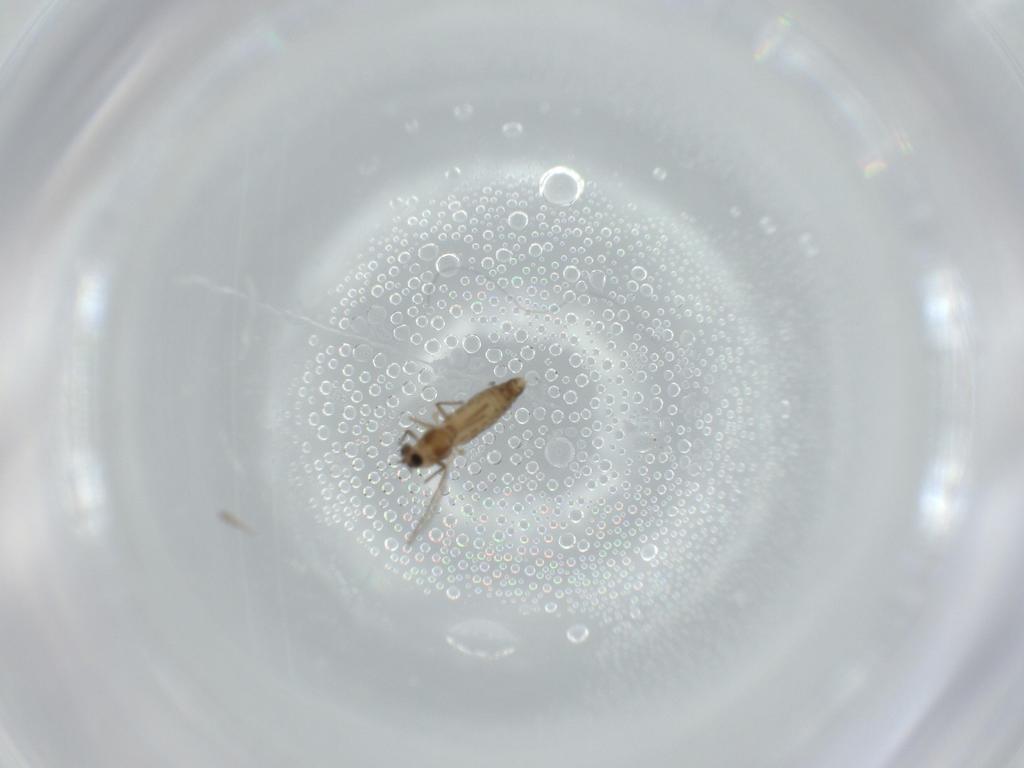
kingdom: Animalia
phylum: Arthropoda
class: Insecta
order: Diptera
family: Chironomidae
